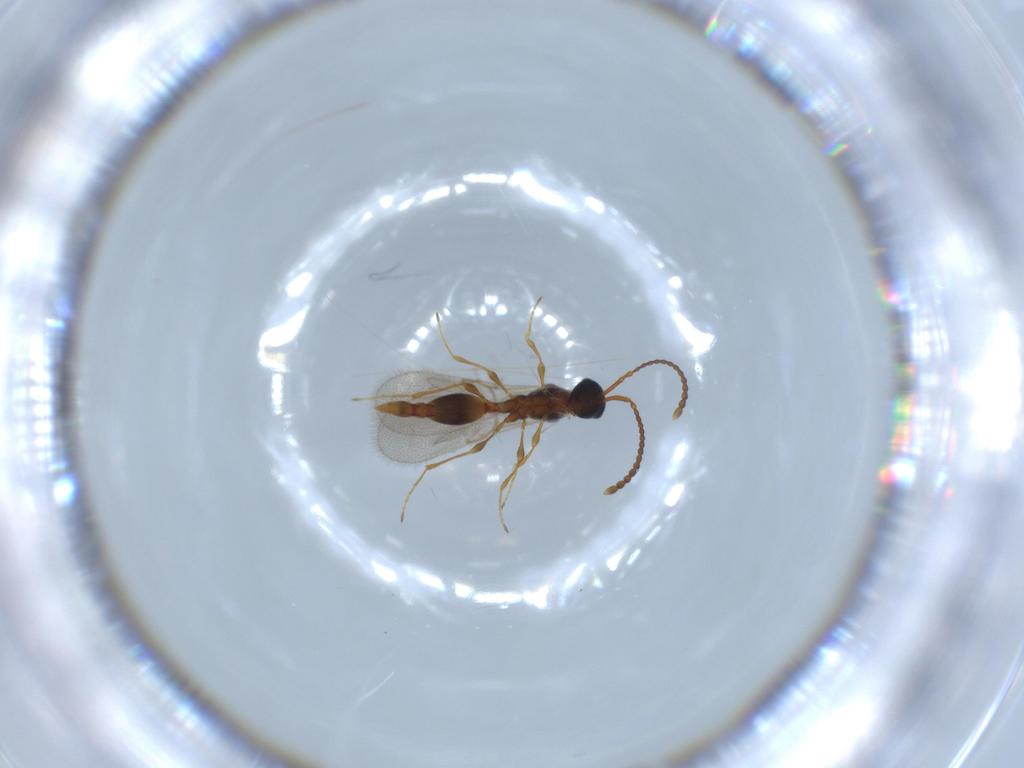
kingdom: Animalia
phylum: Arthropoda
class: Insecta
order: Hymenoptera
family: Diapriidae
